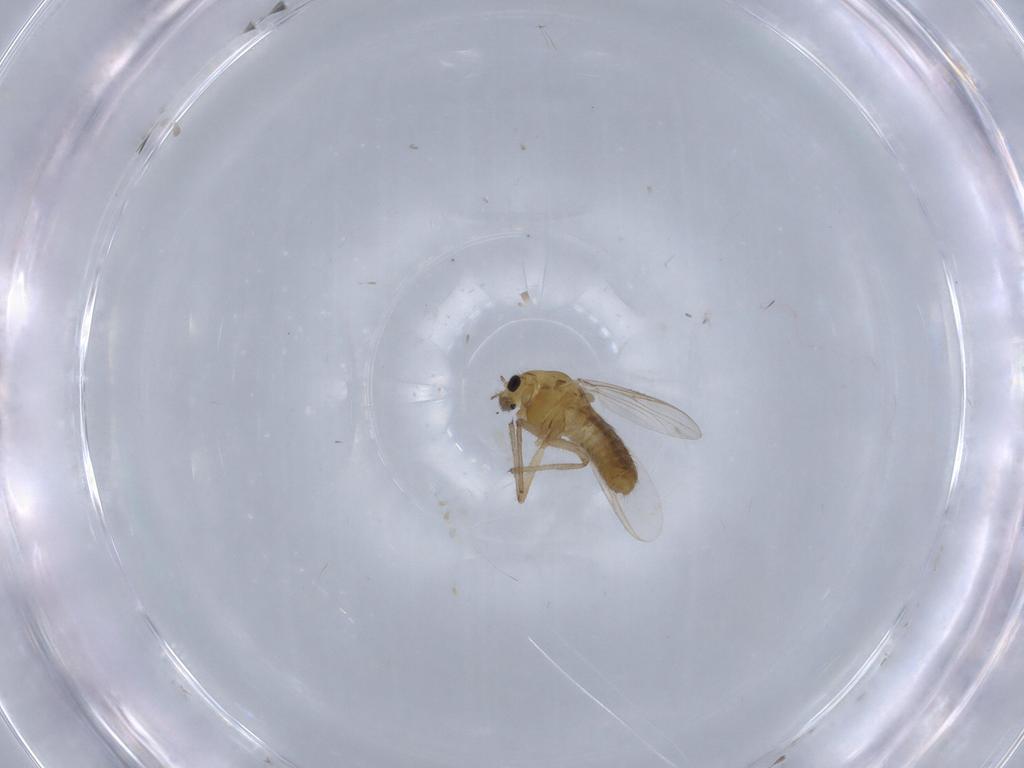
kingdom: Animalia
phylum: Arthropoda
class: Insecta
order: Diptera
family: Chironomidae
